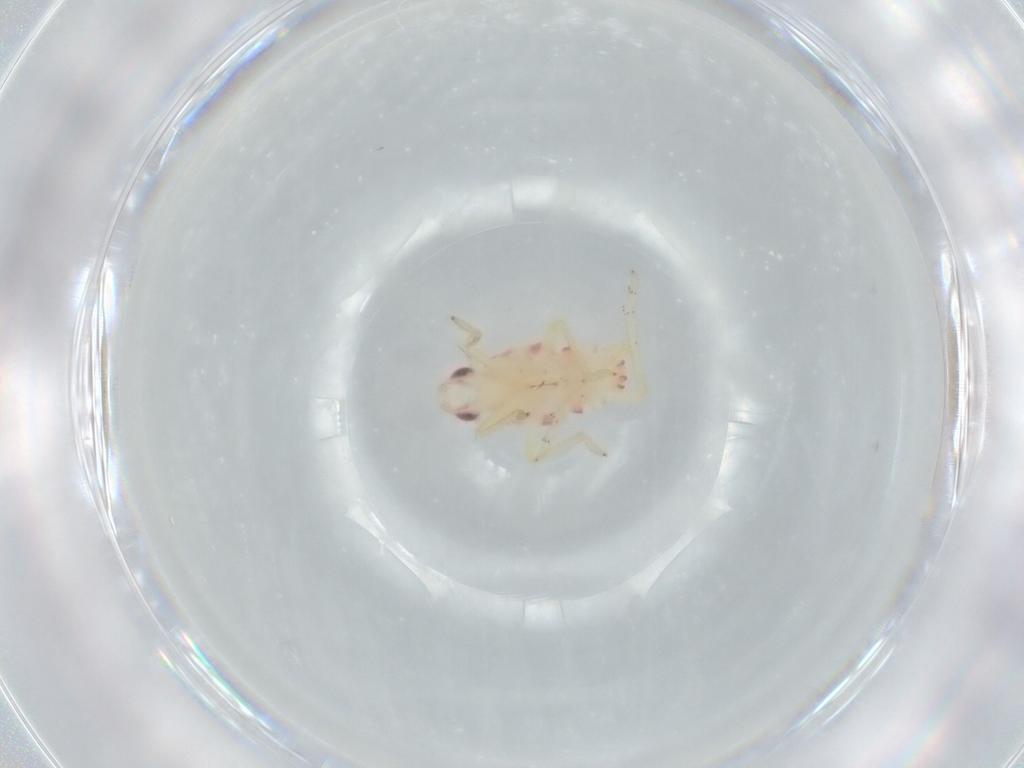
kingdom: Animalia
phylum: Arthropoda
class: Insecta
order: Hemiptera
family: Tropiduchidae
